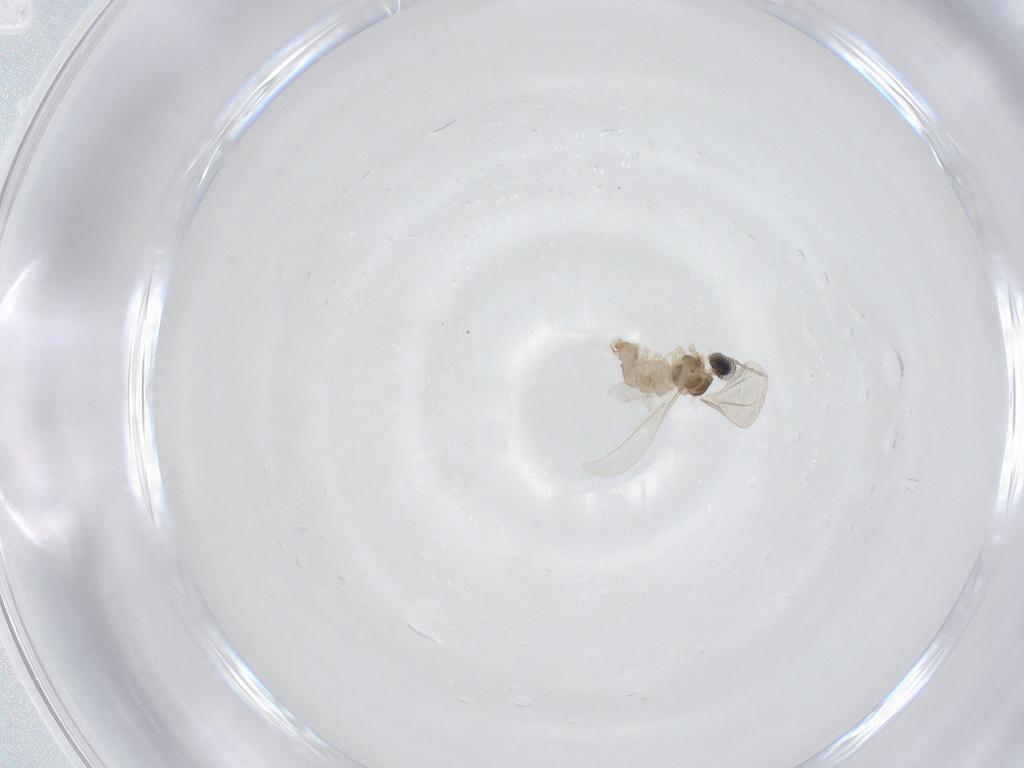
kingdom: Animalia
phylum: Arthropoda
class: Insecta
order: Diptera
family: Cecidomyiidae
